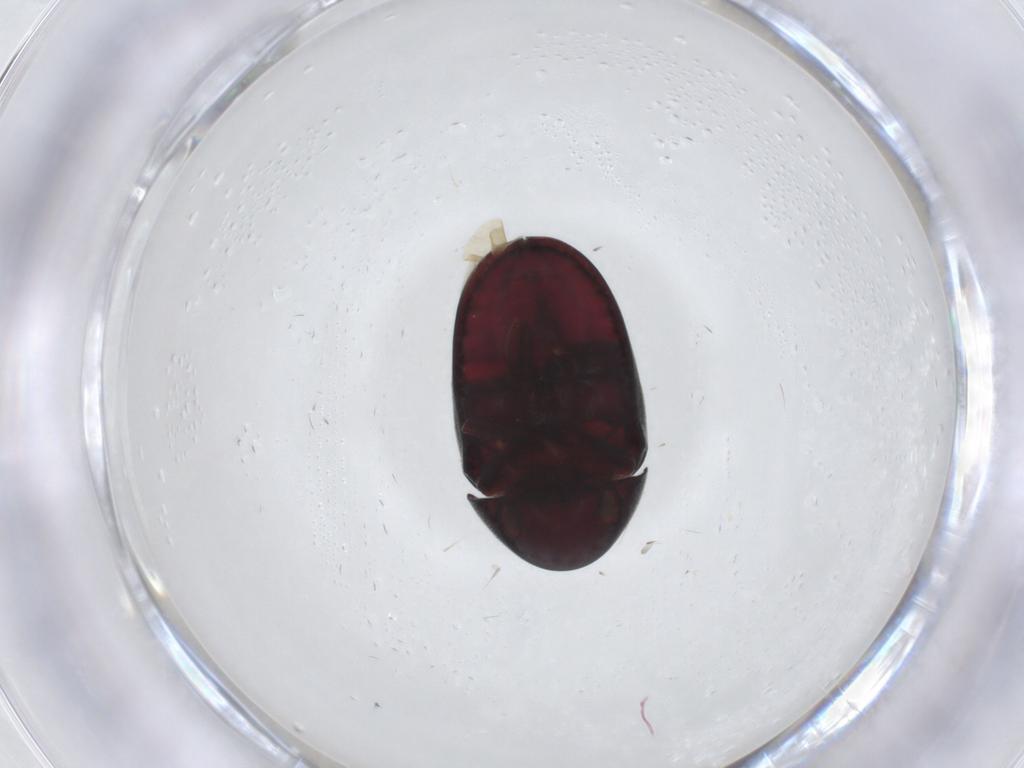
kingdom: Animalia
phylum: Arthropoda
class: Insecta
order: Coleoptera
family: Ptinidae
